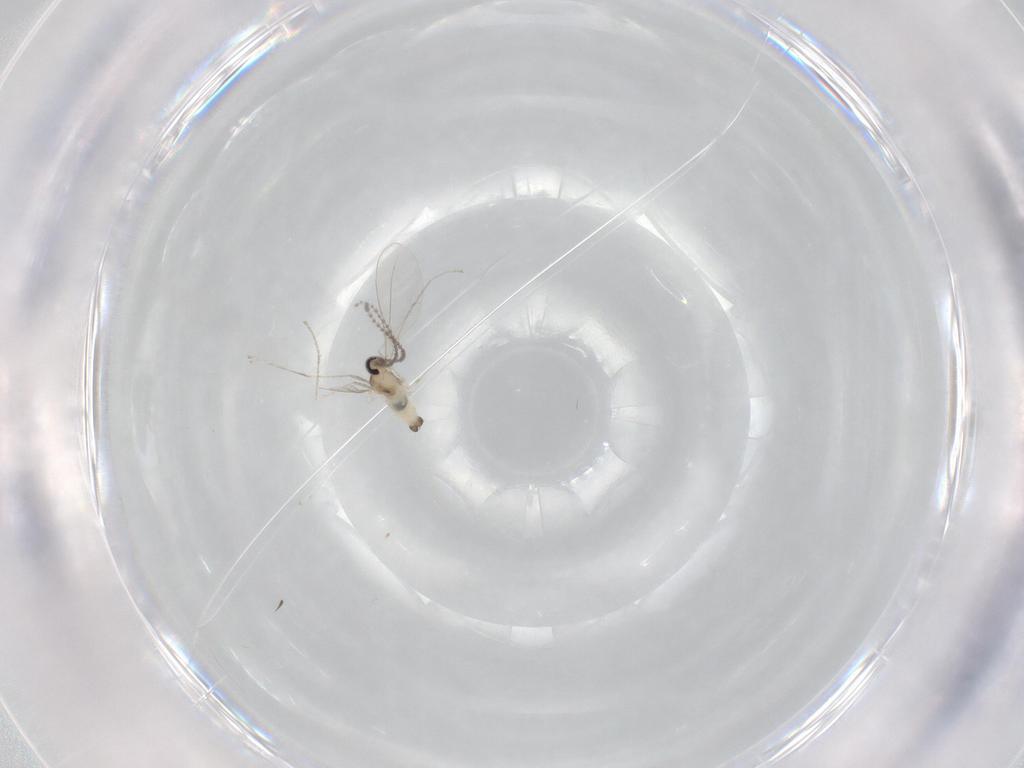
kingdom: Animalia
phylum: Arthropoda
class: Insecta
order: Diptera
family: Cecidomyiidae
